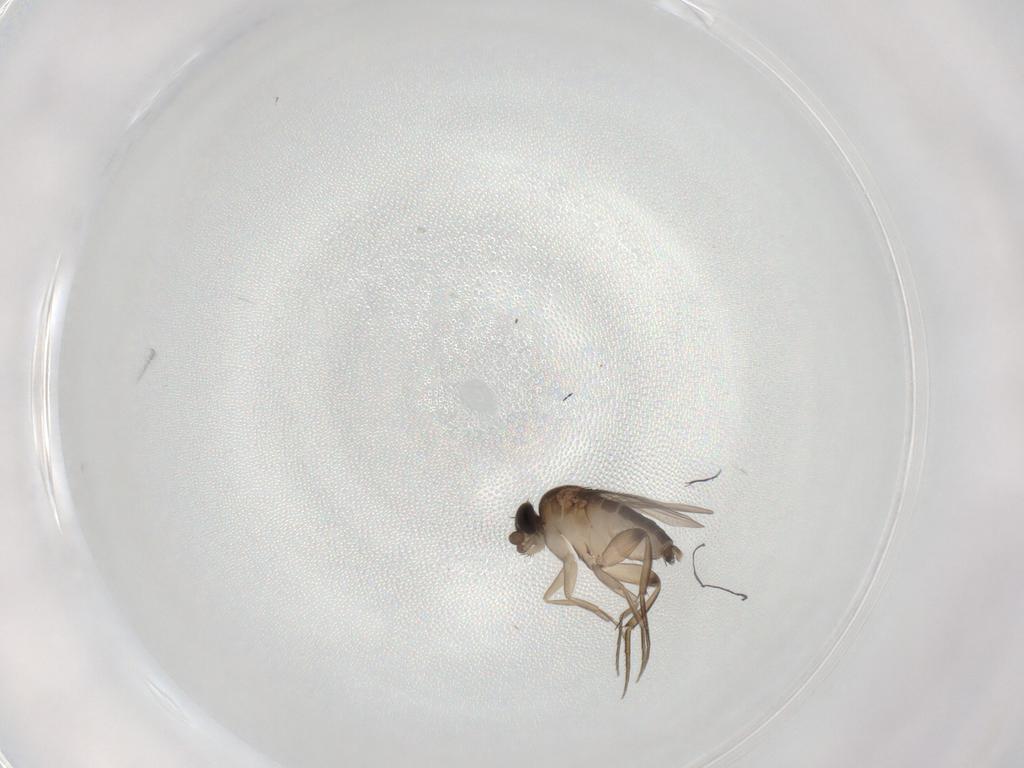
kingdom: Animalia
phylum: Arthropoda
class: Insecta
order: Diptera
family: Phoridae
